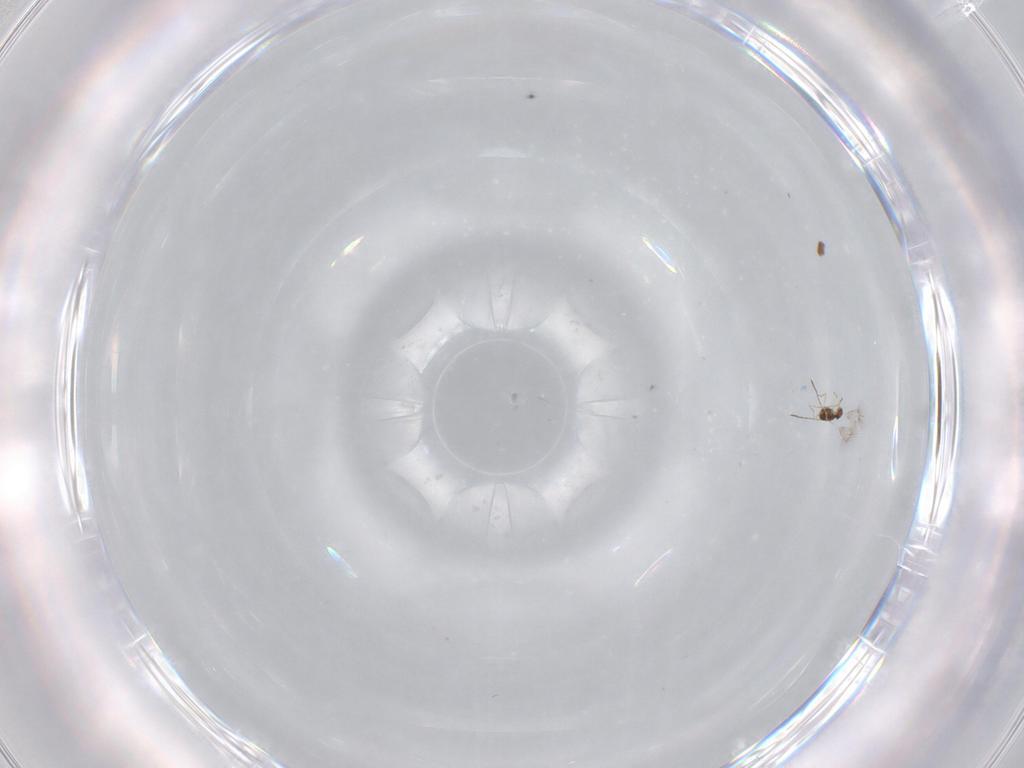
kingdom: Animalia
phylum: Arthropoda
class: Insecta
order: Hymenoptera
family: Mymarommatidae
